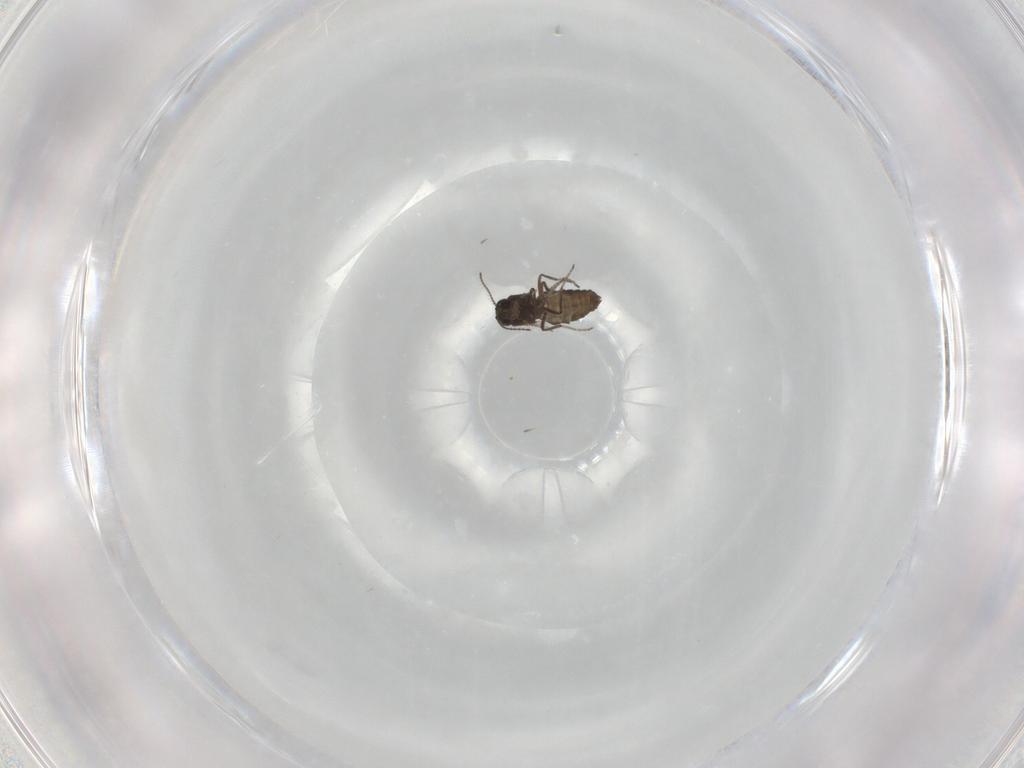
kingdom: Animalia
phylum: Arthropoda
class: Insecta
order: Diptera
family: Ceratopogonidae
